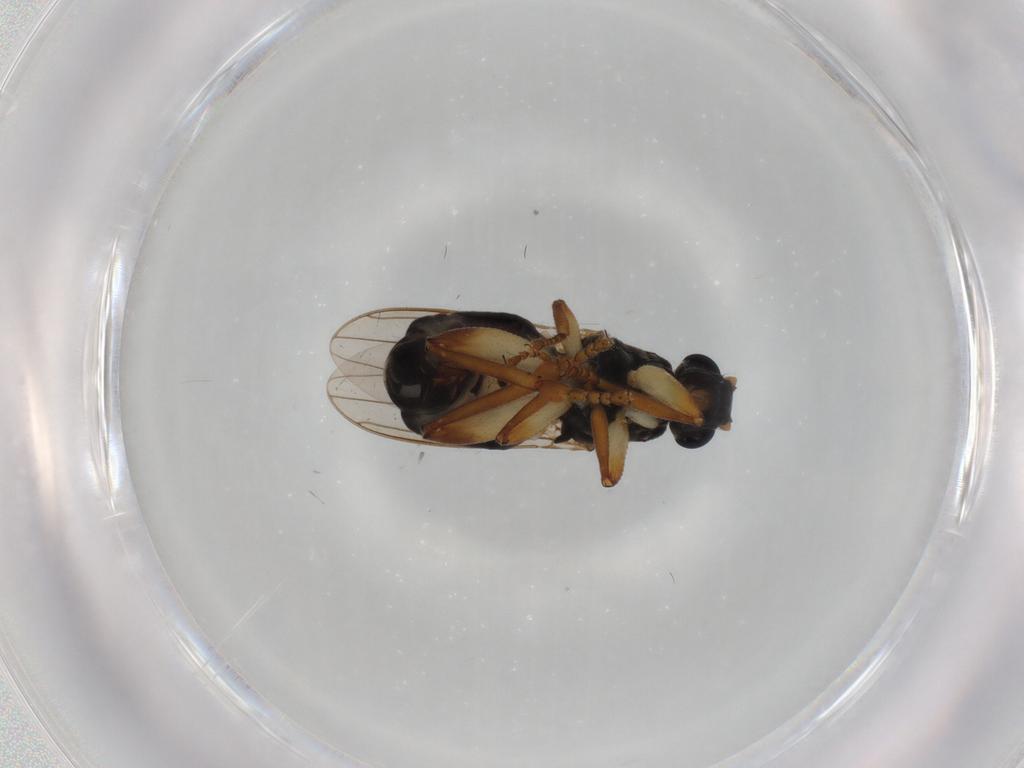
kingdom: Animalia
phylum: Arthropoda
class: Insecta
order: Diptera
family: Sphaeroceridae
